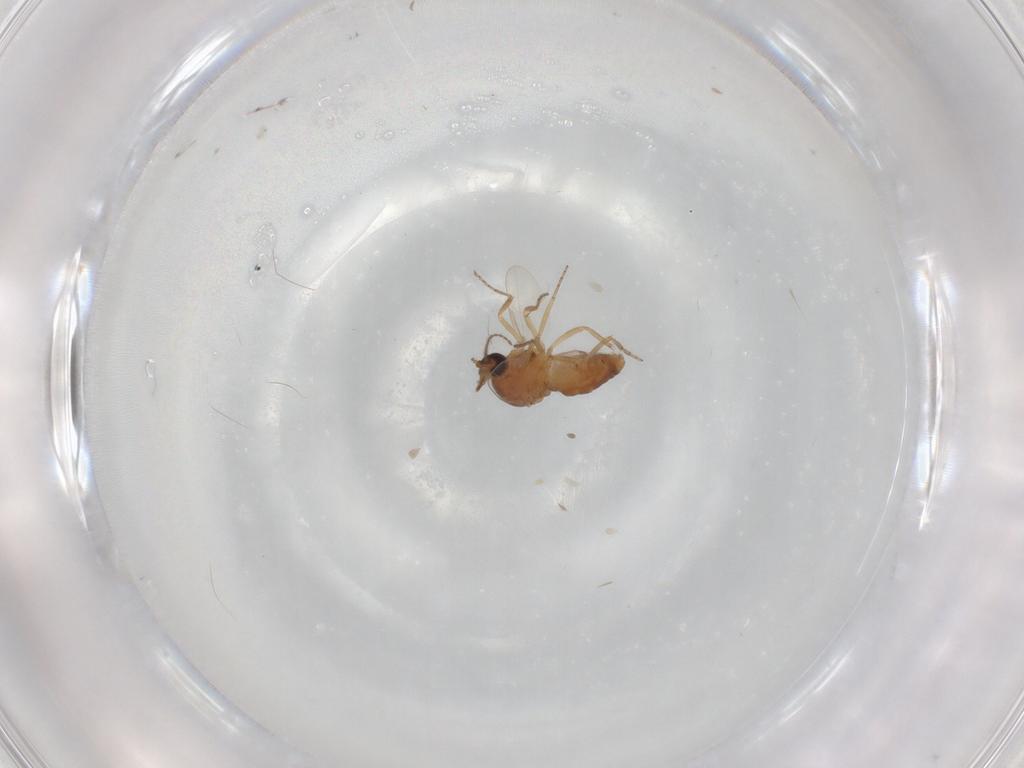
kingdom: Animalia
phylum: Arthropoda
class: Insecta
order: Diptera
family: Ceratopogonidae
